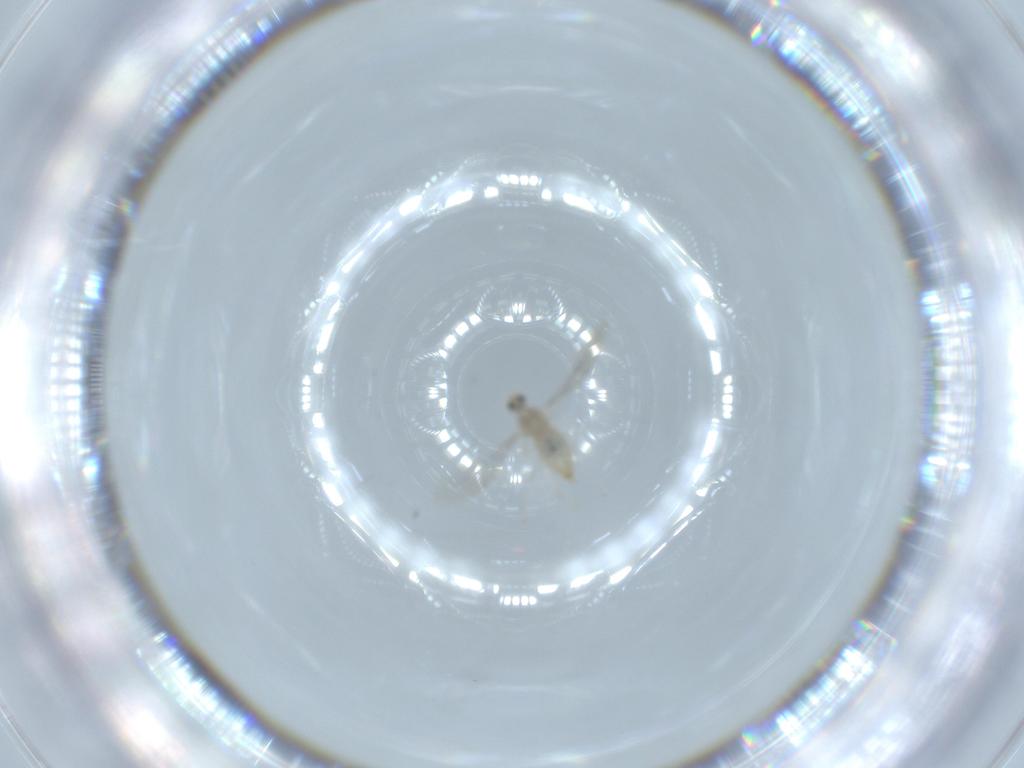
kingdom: Animalia
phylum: Arthropoda
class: Insecta
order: Diptera
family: Cecidomyiidae
